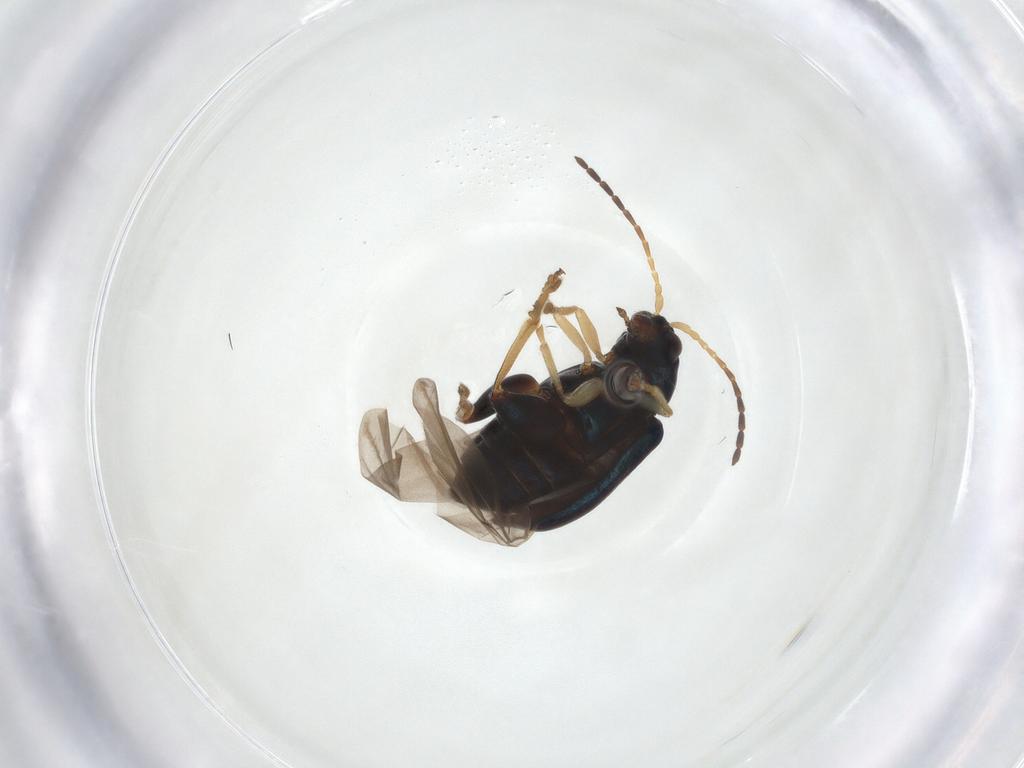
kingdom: Animalia
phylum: Arthropoda
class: Insecta
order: Coleoptera
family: Chrysomelidae
